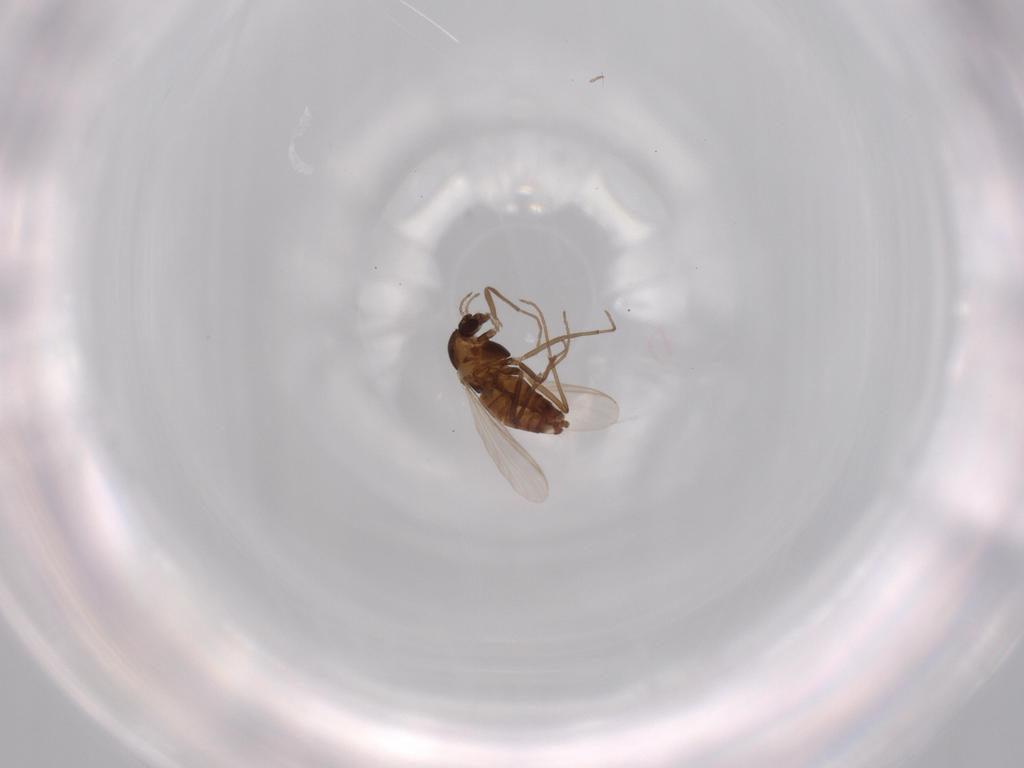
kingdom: Animalia
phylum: Arthropoda
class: Insecta
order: Diptera
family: Chironomidae
